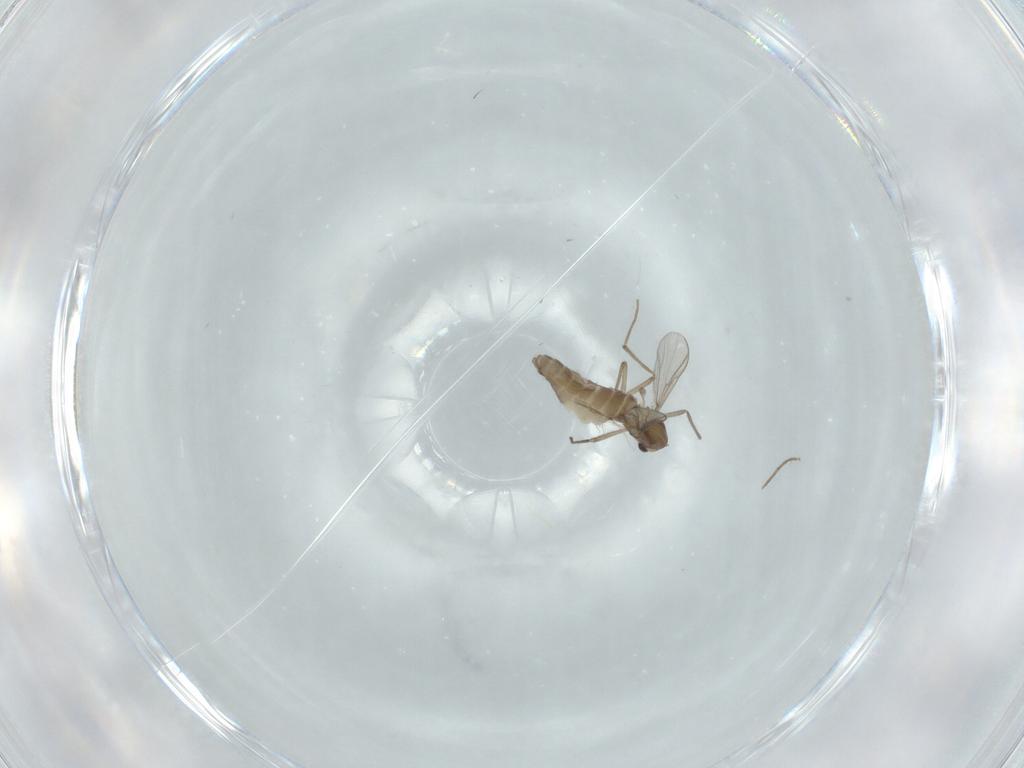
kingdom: Animalia
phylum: Arthropoda
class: Insecta
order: Diptera
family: Chironomidae
